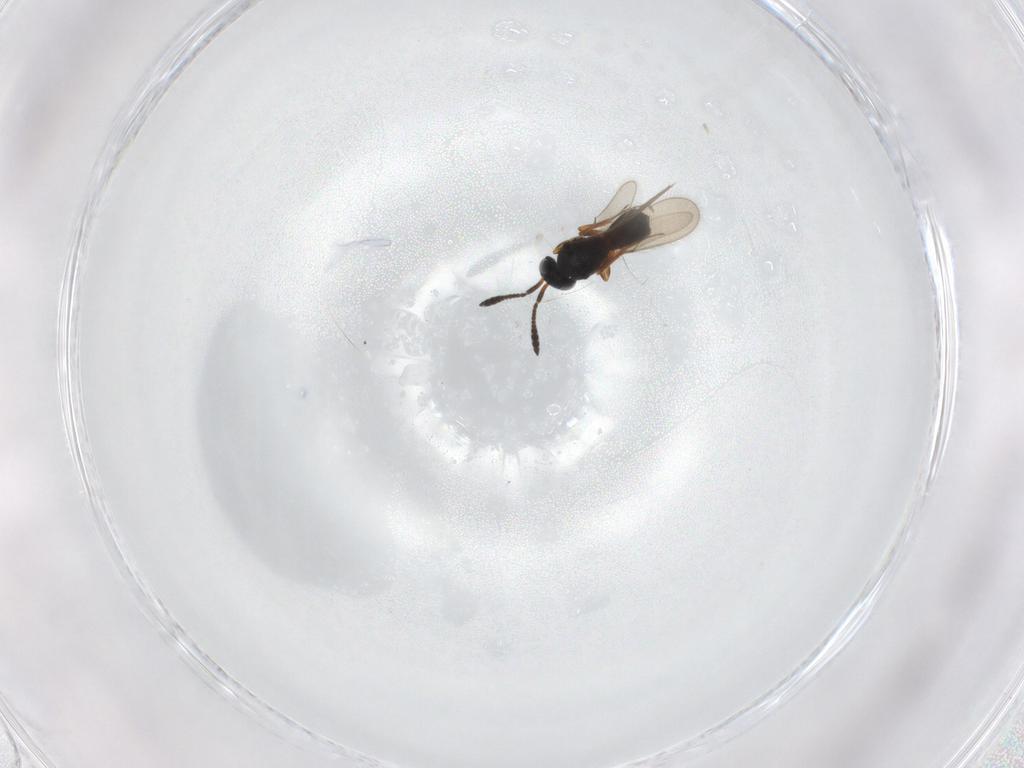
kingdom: Animalia
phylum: Arthropoda
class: Insecta
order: Hymenoptera
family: Scelionidae
